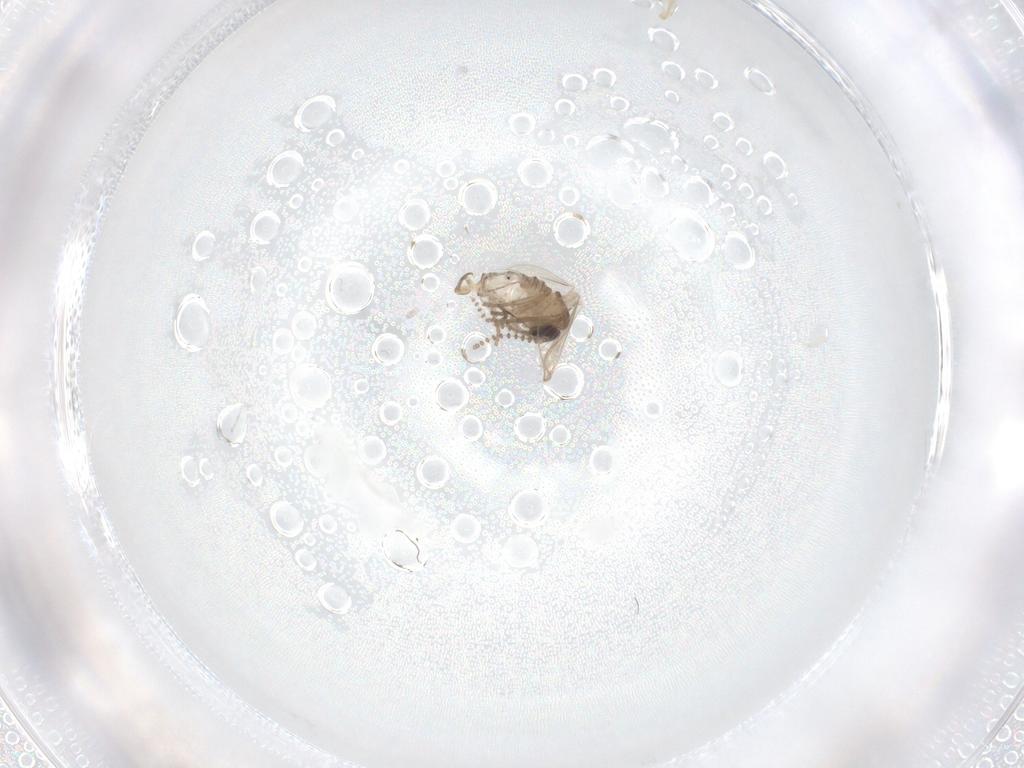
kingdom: Animalia
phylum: Arthropoda
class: Insecta
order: Diptera
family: Psychodidae
